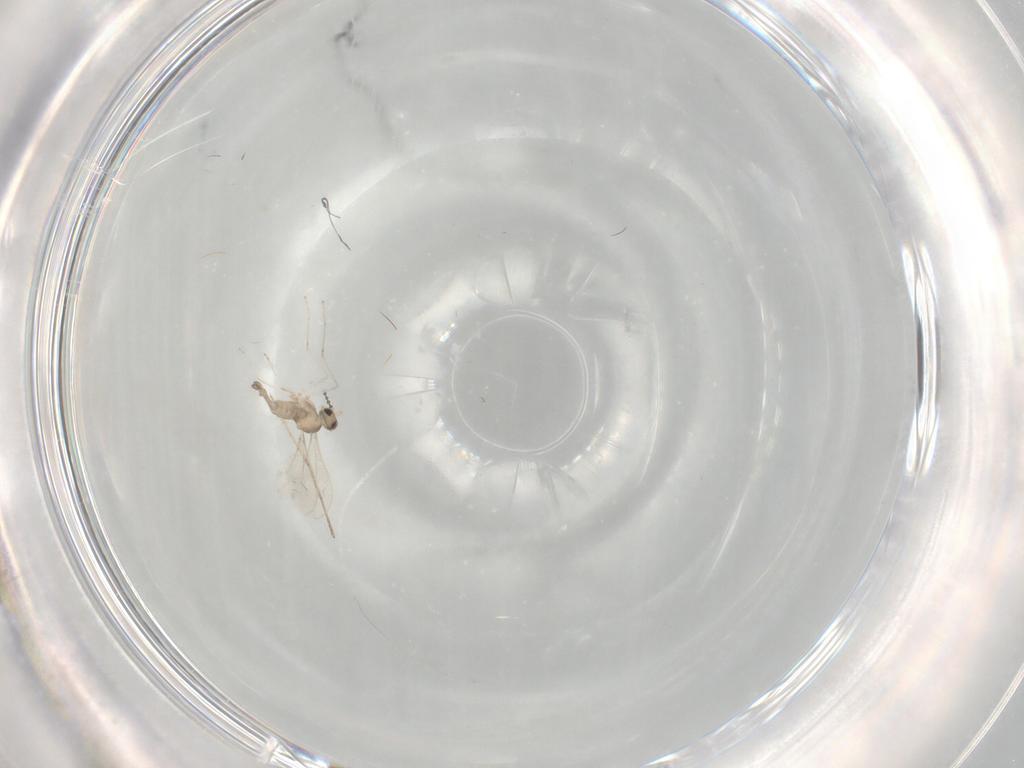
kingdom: Animalia
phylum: Arthropoda
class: Insecta
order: Diptera
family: Cecidomyiidae
